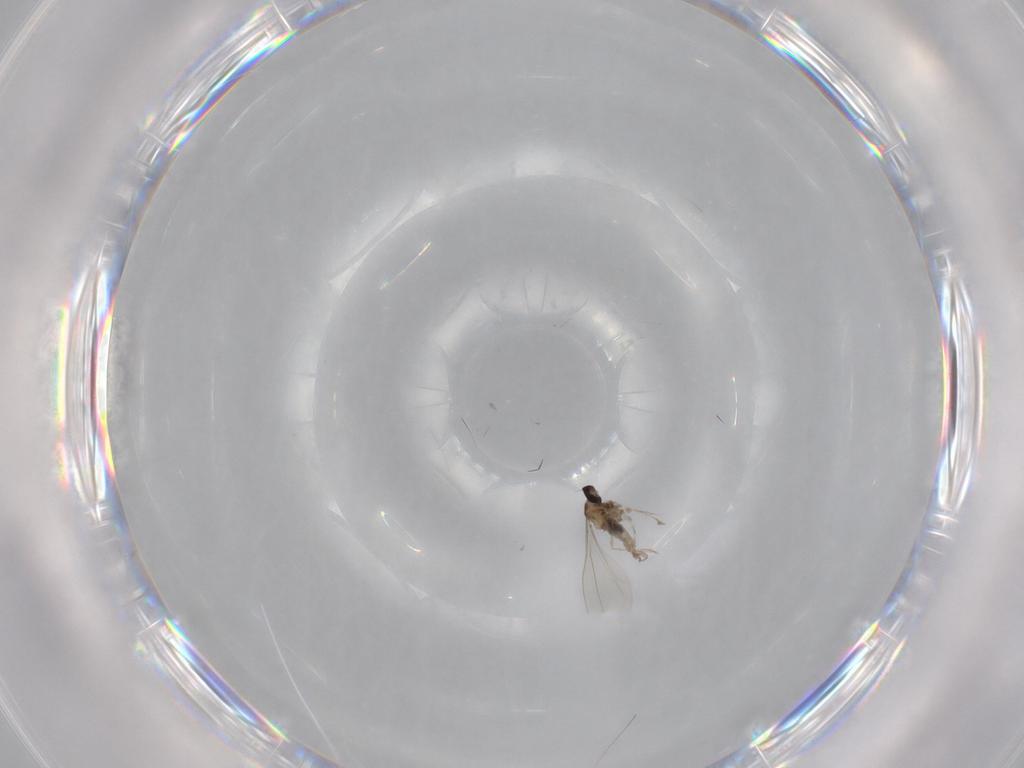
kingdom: Animalia
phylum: Arthropoda
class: Insecta
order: Diptera
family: Cecidomyiidae
